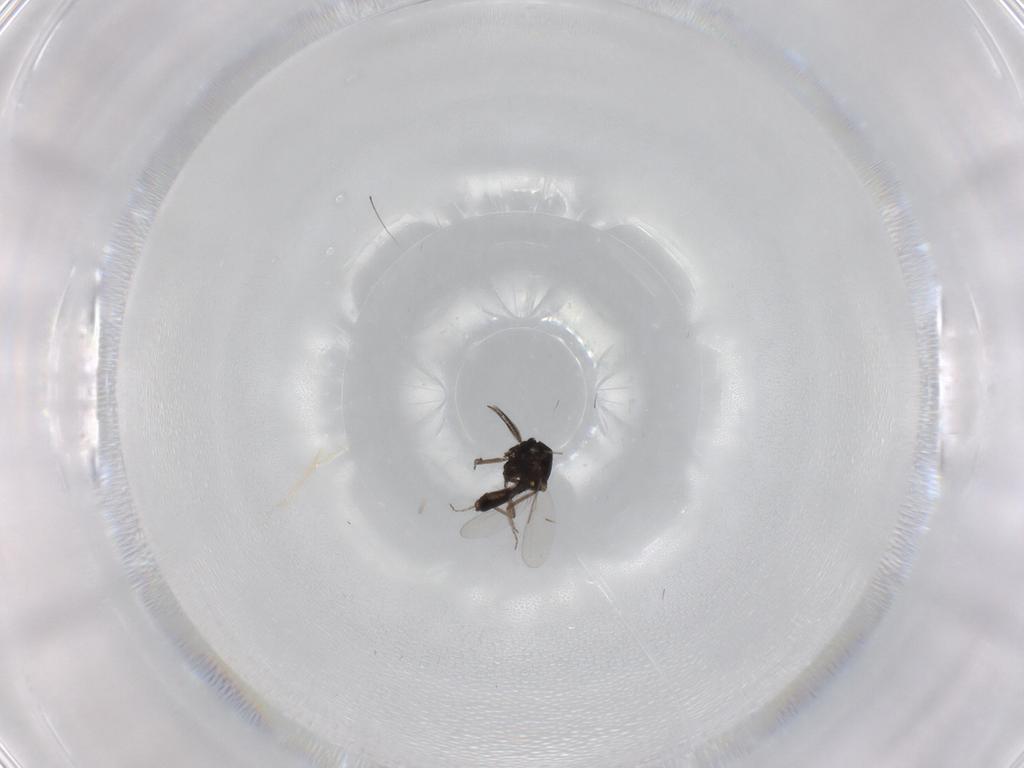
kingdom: Animalia
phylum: Arthropoda
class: Insecta
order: Diptera
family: Ceratopogonidae
